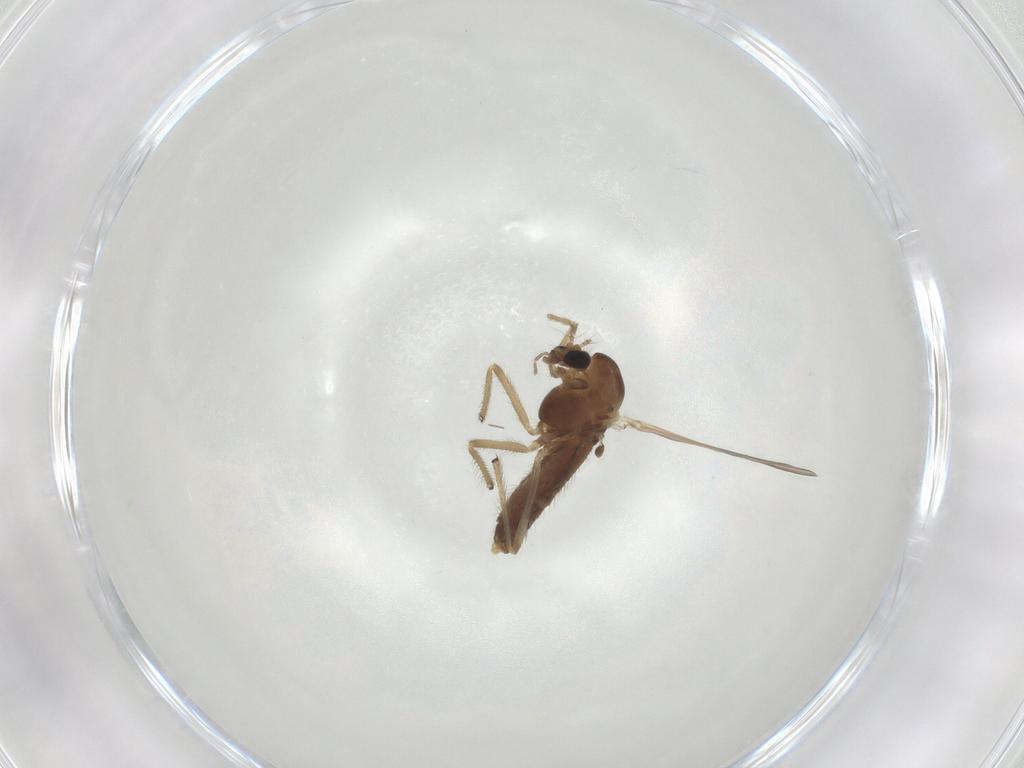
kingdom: Animalia
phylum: Arthropoda
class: Insecta
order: Diptera
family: Chironomidae
